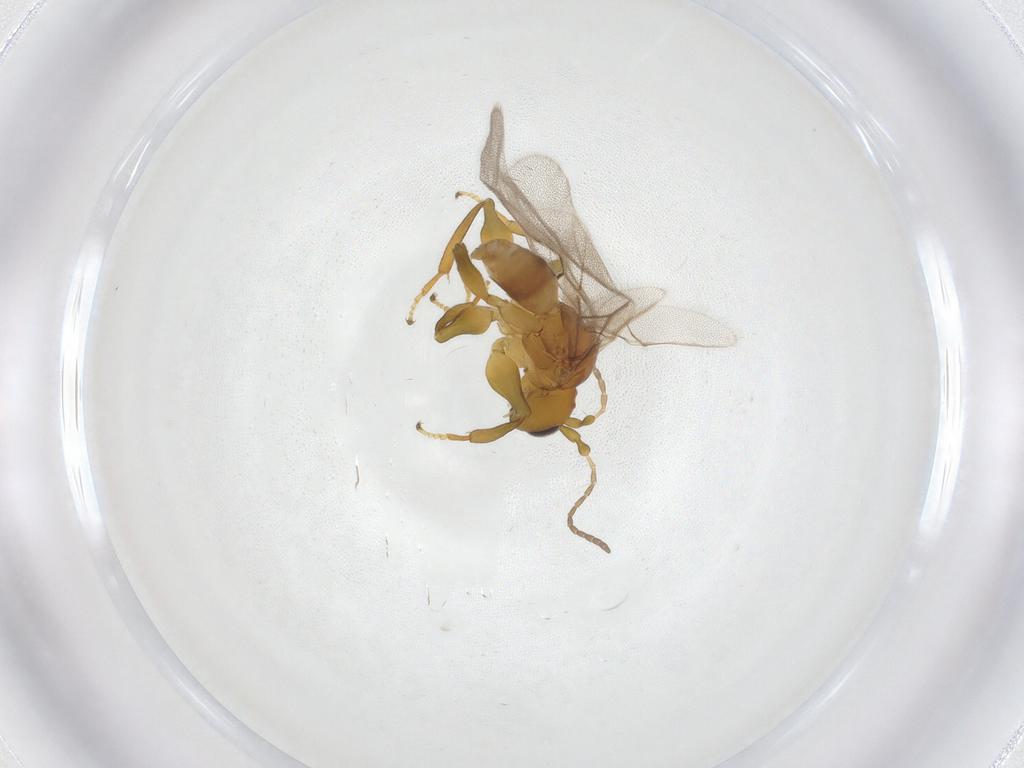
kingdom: Animalia
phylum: Arthropoda
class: Insecta
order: Hymenoptera
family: Cynipidae
